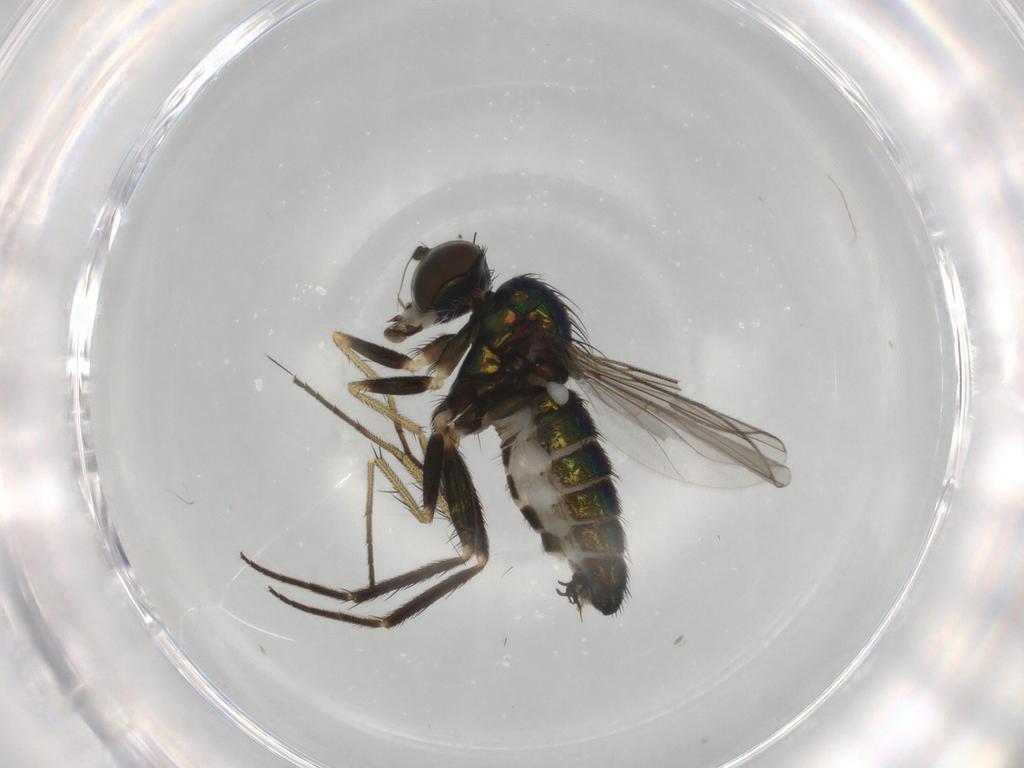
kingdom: Animalia
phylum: Arthropoda
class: Insecta
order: Diptera
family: Dolichopodidae
